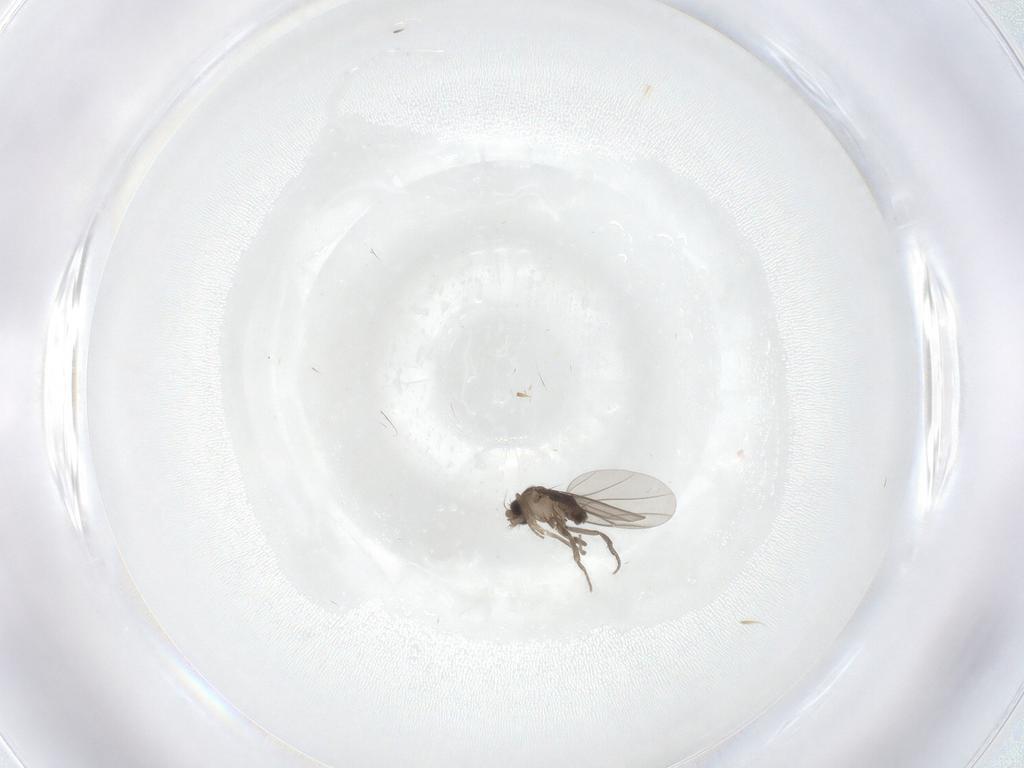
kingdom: Animalia
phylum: Arthropoda
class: Insecta
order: Diptera
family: Phoridae
